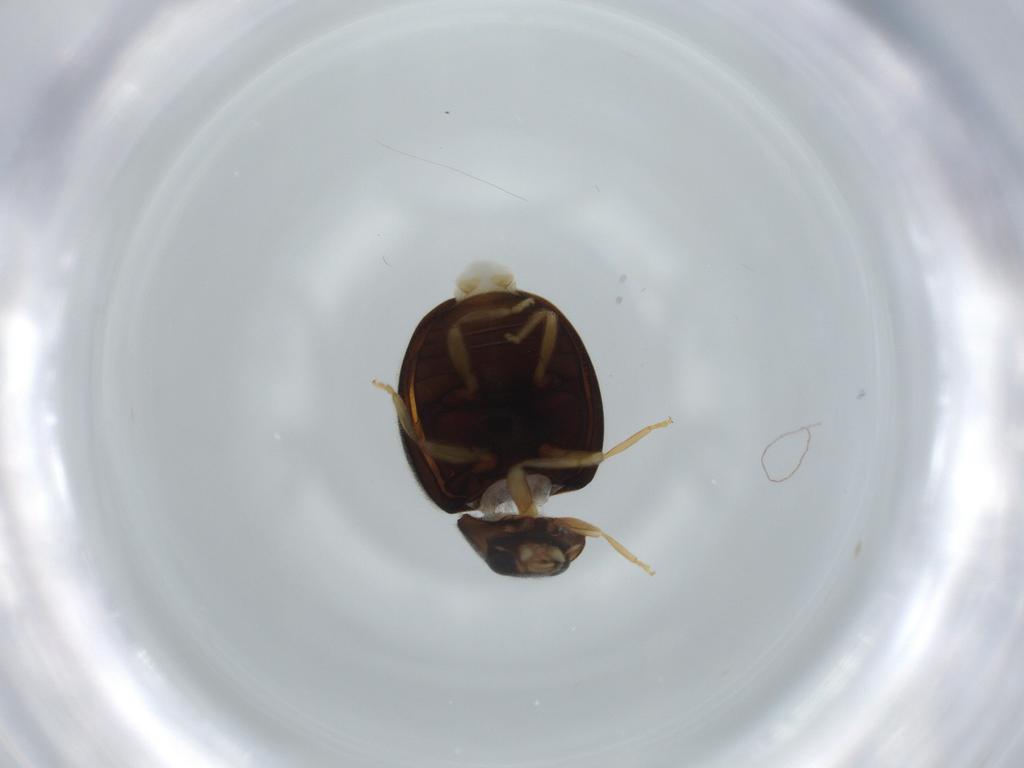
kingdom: Animalia
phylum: Arthropoda
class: Insecta
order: Coleoptera
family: Coccinellidae
